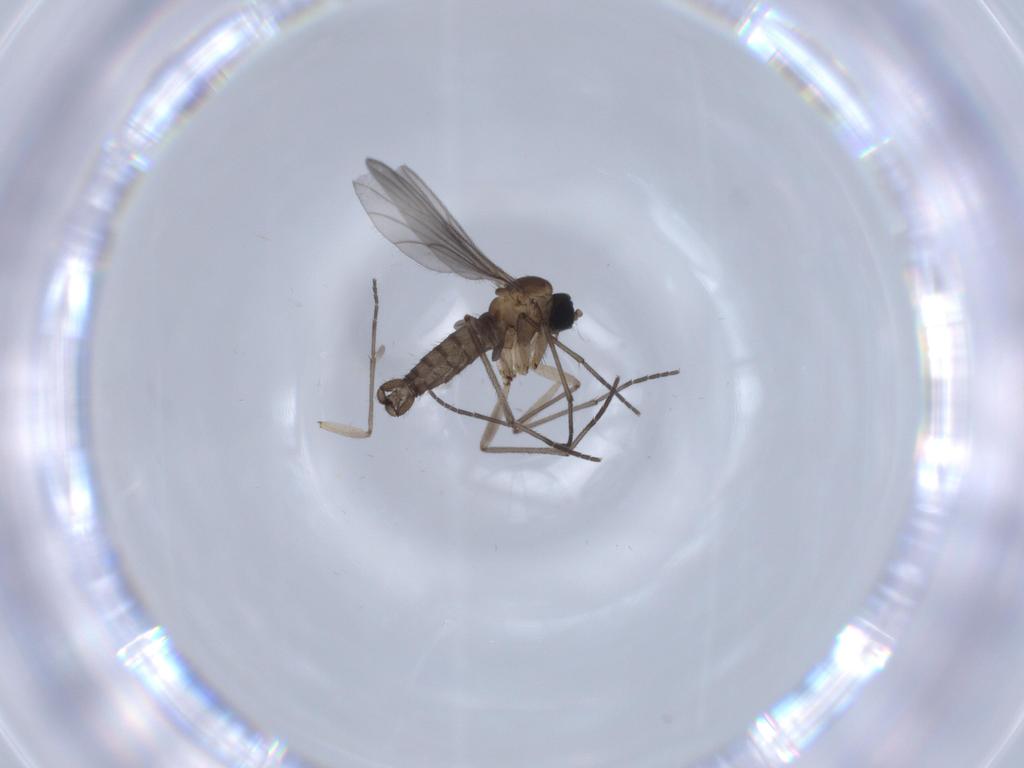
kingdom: Animalia
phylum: Arthropoda
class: Insecta
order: Diptera
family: Sciaridae
